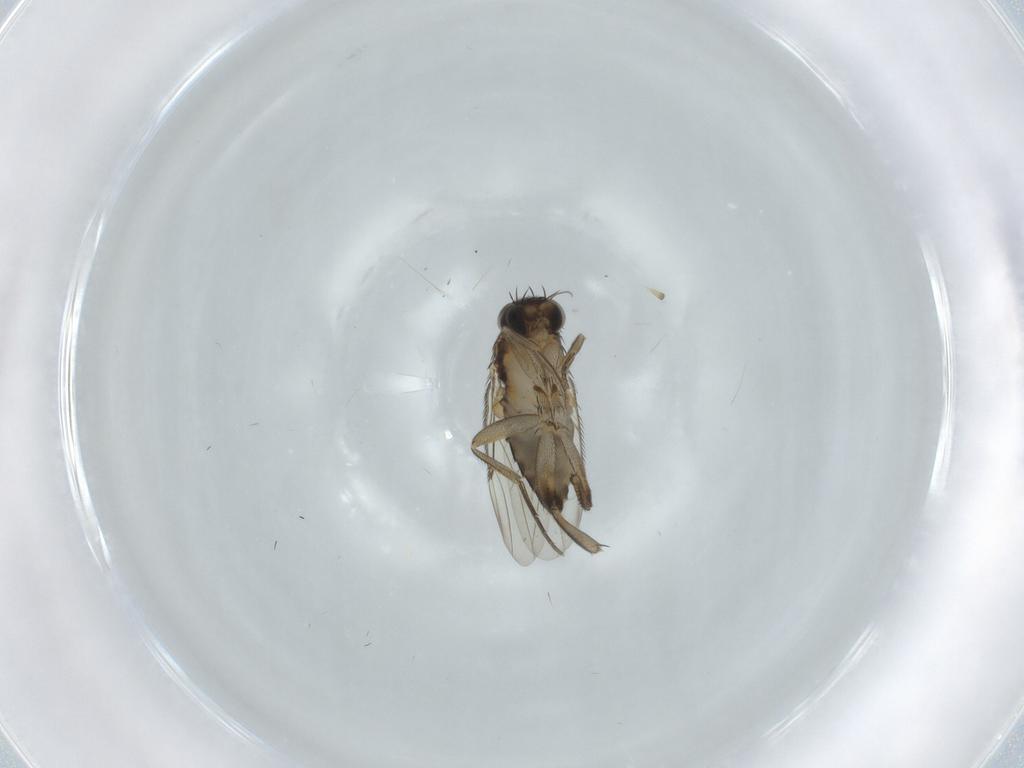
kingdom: Animalia
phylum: Arthropoda
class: Insecta
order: Diptera
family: Phoridae
